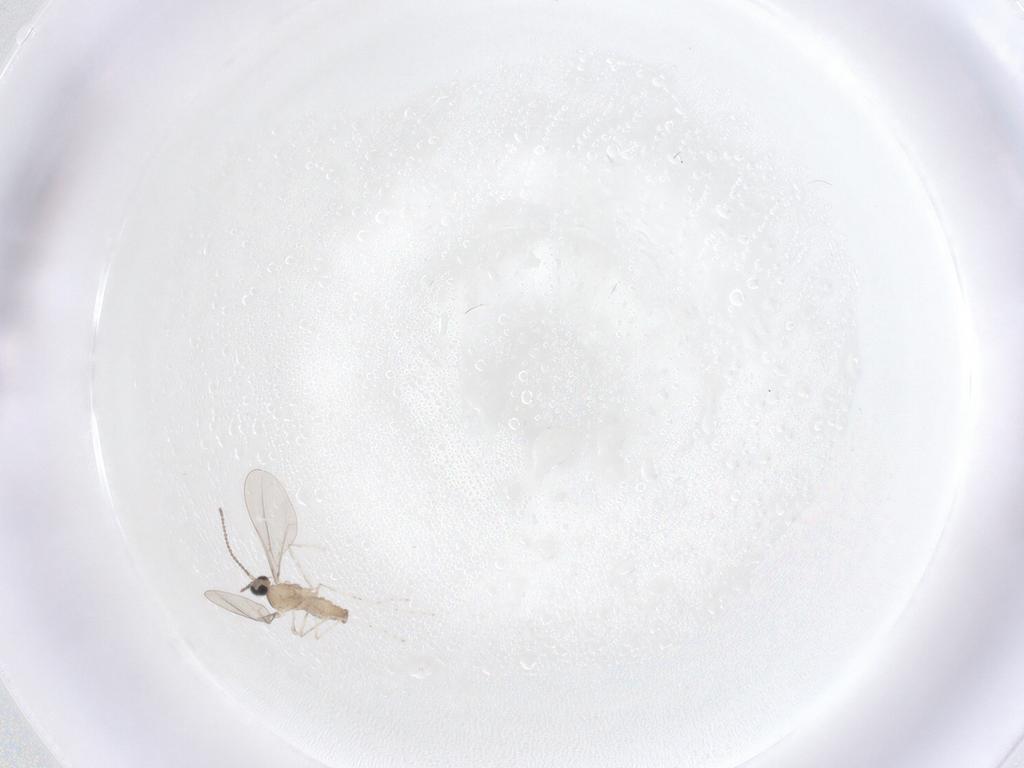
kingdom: Animalia
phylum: Arthropoda
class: Insecta
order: Diptera
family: Cecidomyiidae
